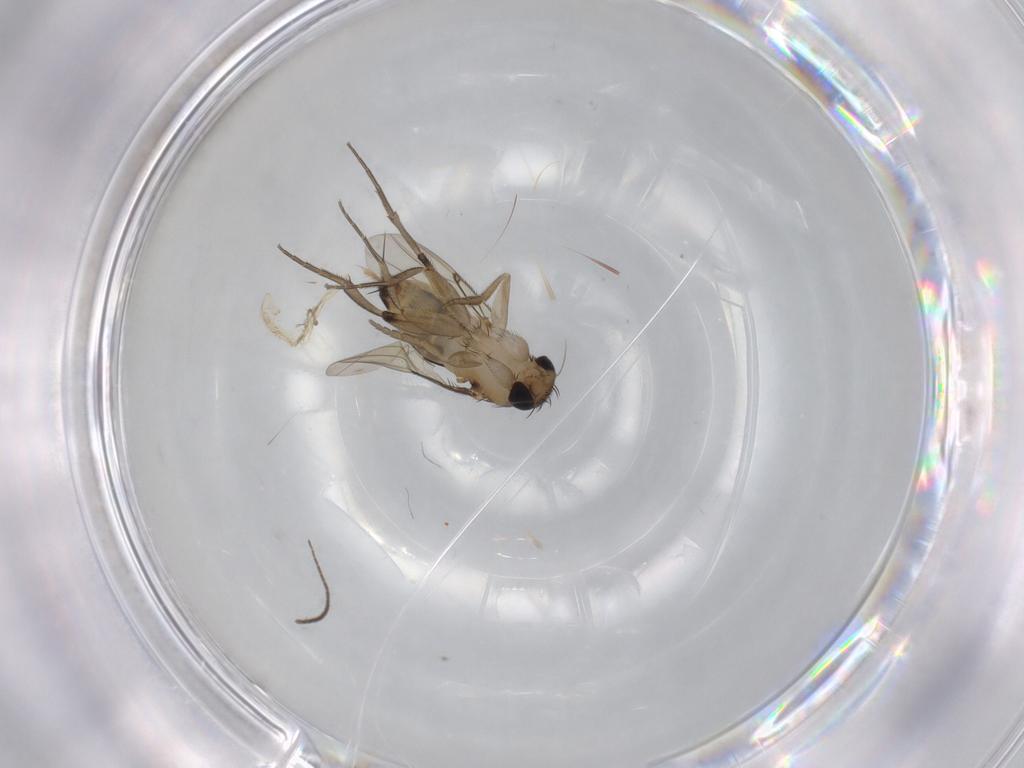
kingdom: Animalia
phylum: Arthropoda
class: Insecta
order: Diptera
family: Phoridae
